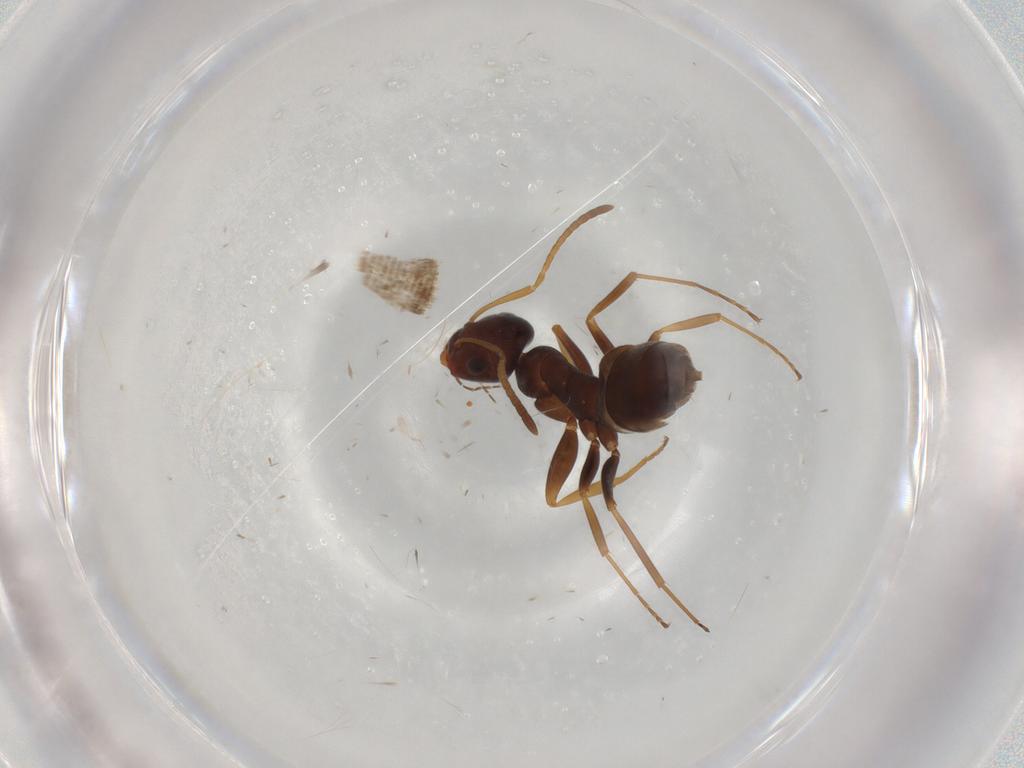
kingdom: Animalia
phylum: Arthropoda
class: Insecta
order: Hymenoptera
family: Formicidae
